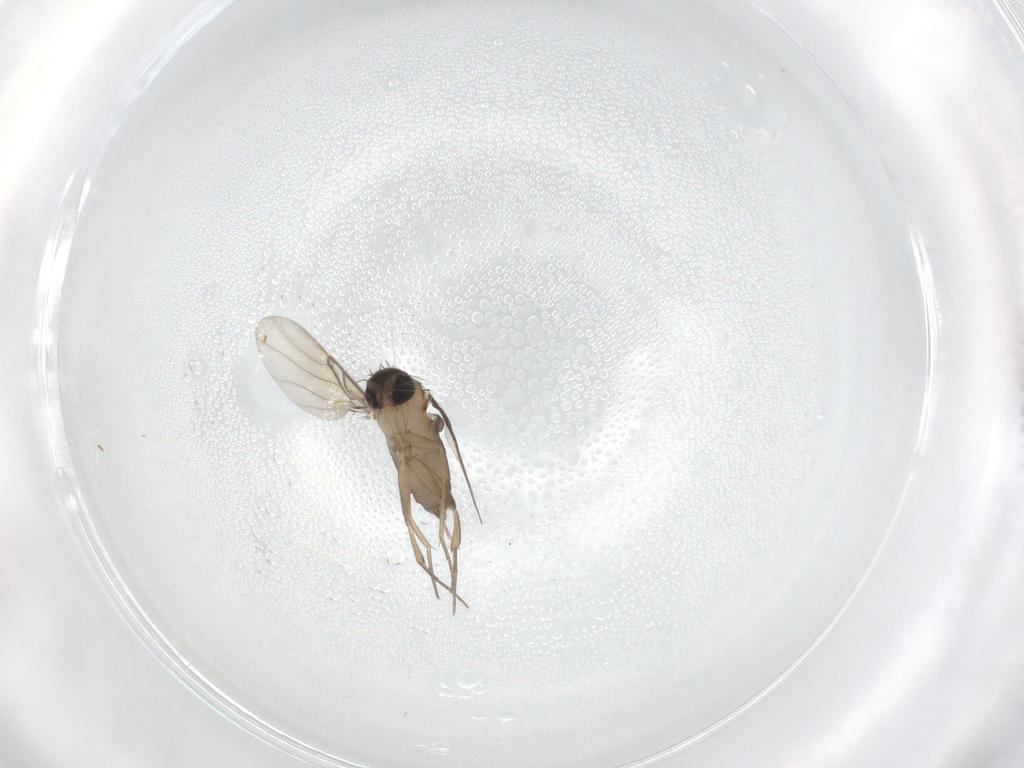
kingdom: Animalia
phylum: Arthropoda
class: Insecta
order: Diptera
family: Phoridae
